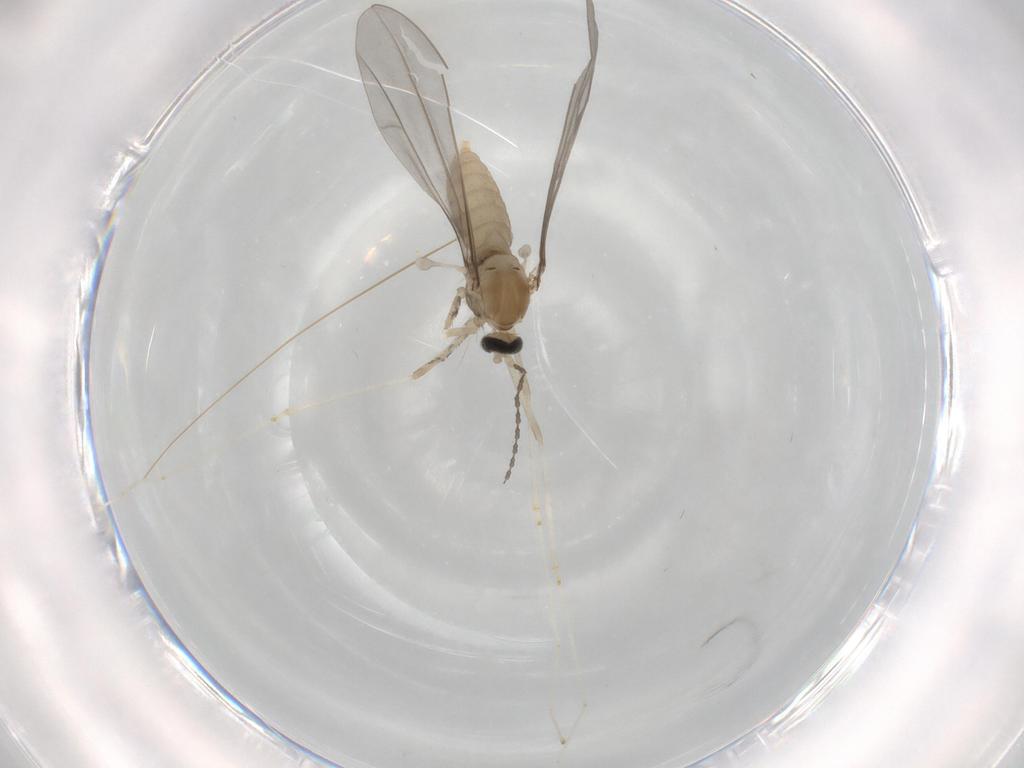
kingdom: Animalia
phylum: Arthropoda
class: Insecta
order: Diptera
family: Cecidomyiidae
